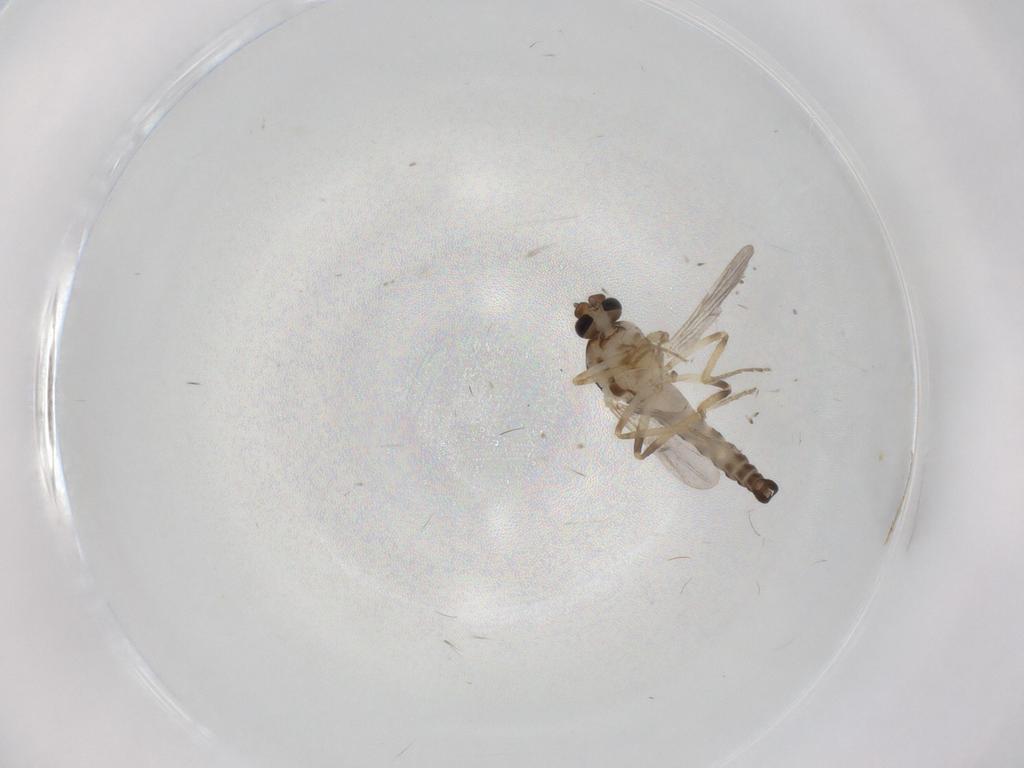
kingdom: Animalia
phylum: Arthropoda
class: Insecta
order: Diptera
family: Ceratopogonidae
